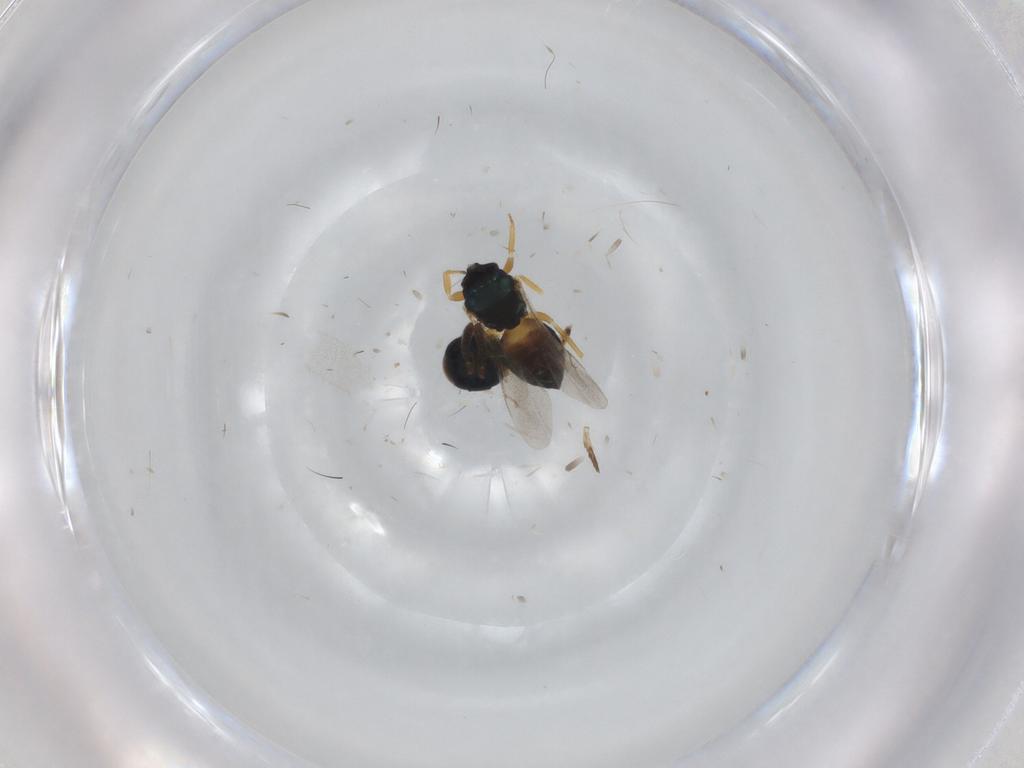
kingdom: Animalia
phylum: Arthropoda
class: Insecta
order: Hymenoptera
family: Pteromalidae
